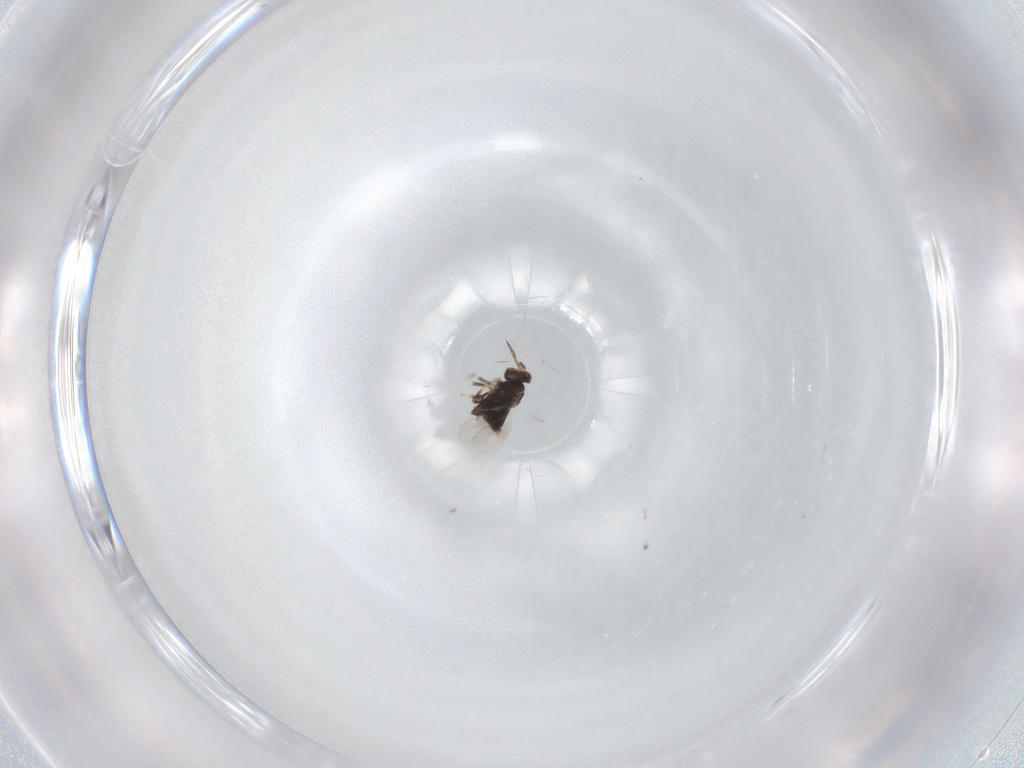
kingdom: Animalia
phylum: Arthropoda
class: Insecta
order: Hymenoptera
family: Aphelinidae
